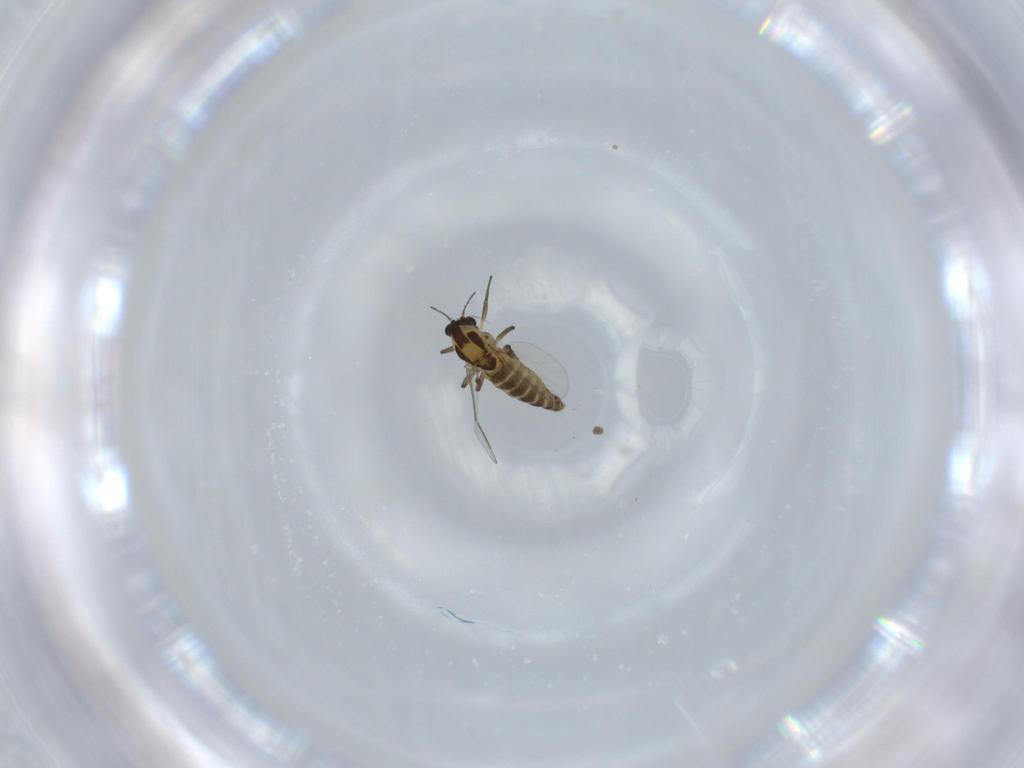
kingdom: Animalia
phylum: Arthropoda
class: Insecta
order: Diptera
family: Chironomidae
